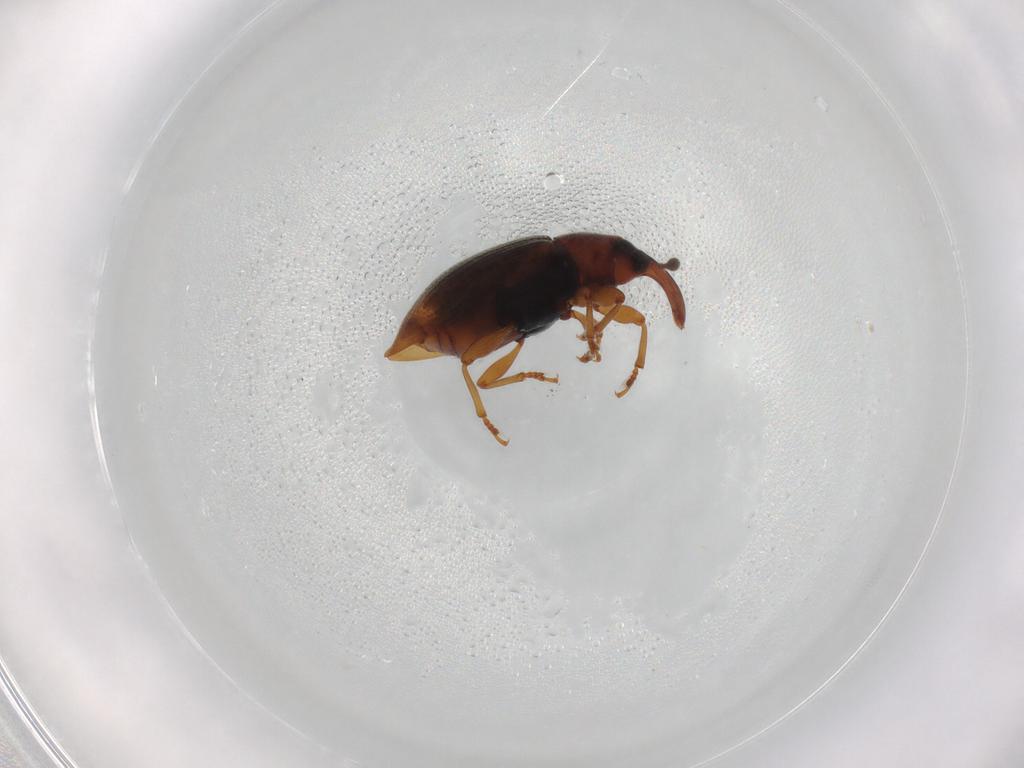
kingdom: Animalia
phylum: Arthropoda
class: Insecta
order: Coleoptera
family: Curculionidae
